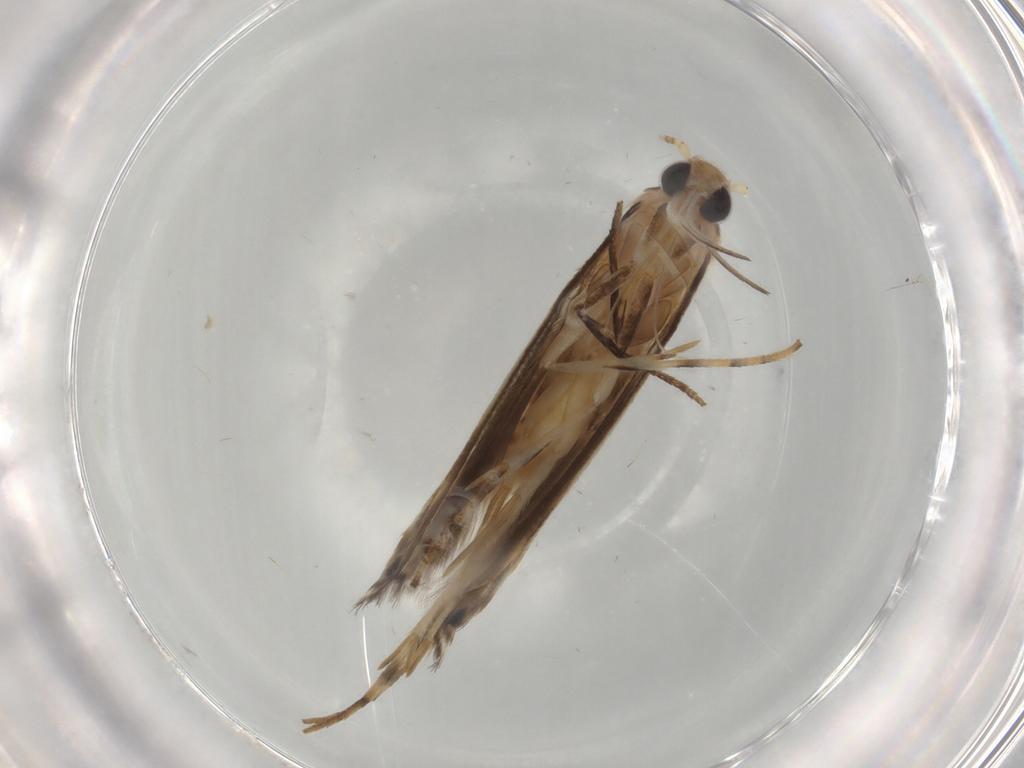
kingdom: Animalia
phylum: Arthropoda
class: Insecta
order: Lepidoptera
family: Gelechiidae
